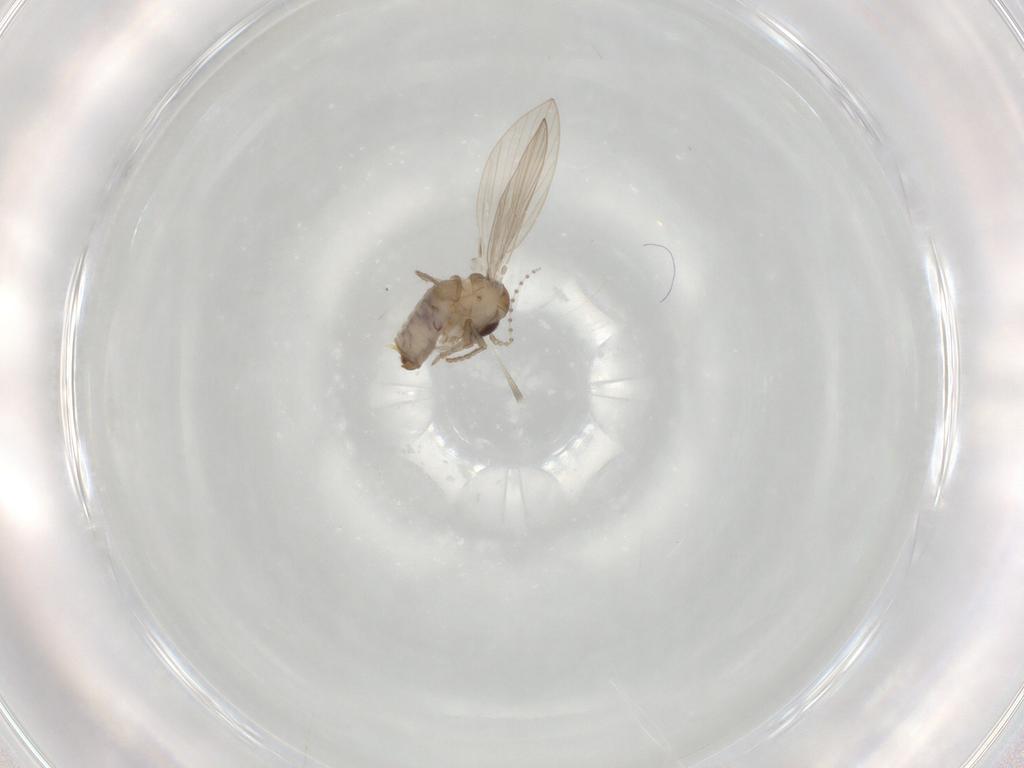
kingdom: Animalia
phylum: Arthropoda
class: Insecta
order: Diptera
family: Psychodidae
